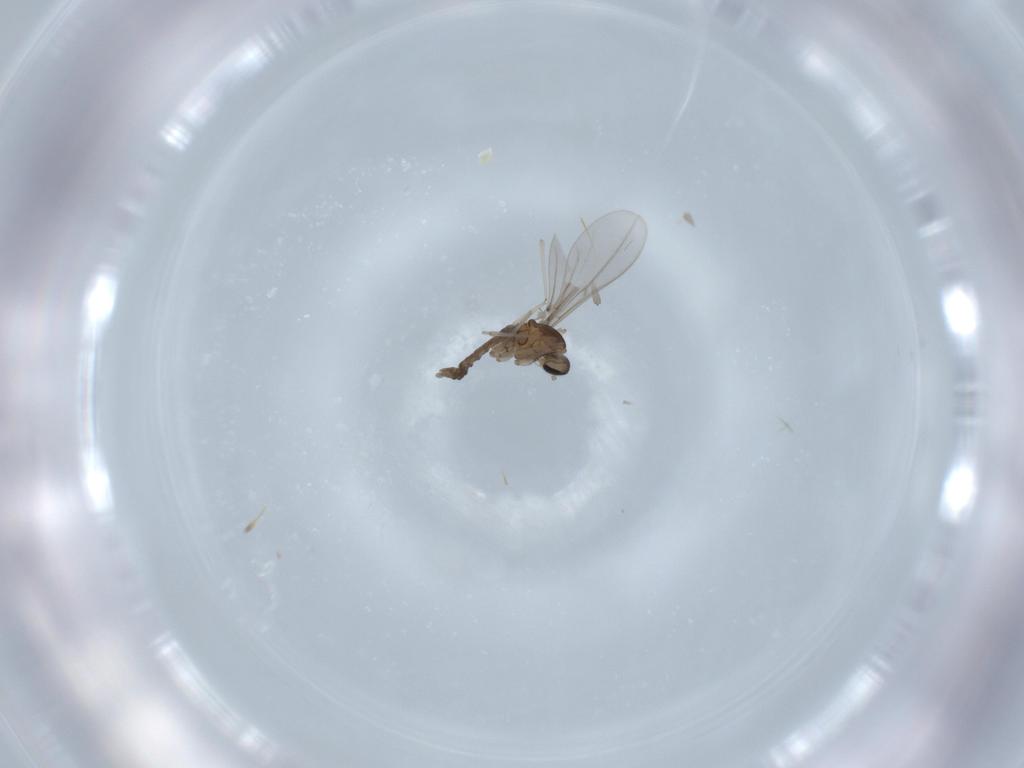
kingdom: Animalia
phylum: Arthropoda
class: Insecta
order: Diptera
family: Cecidomyiidae
